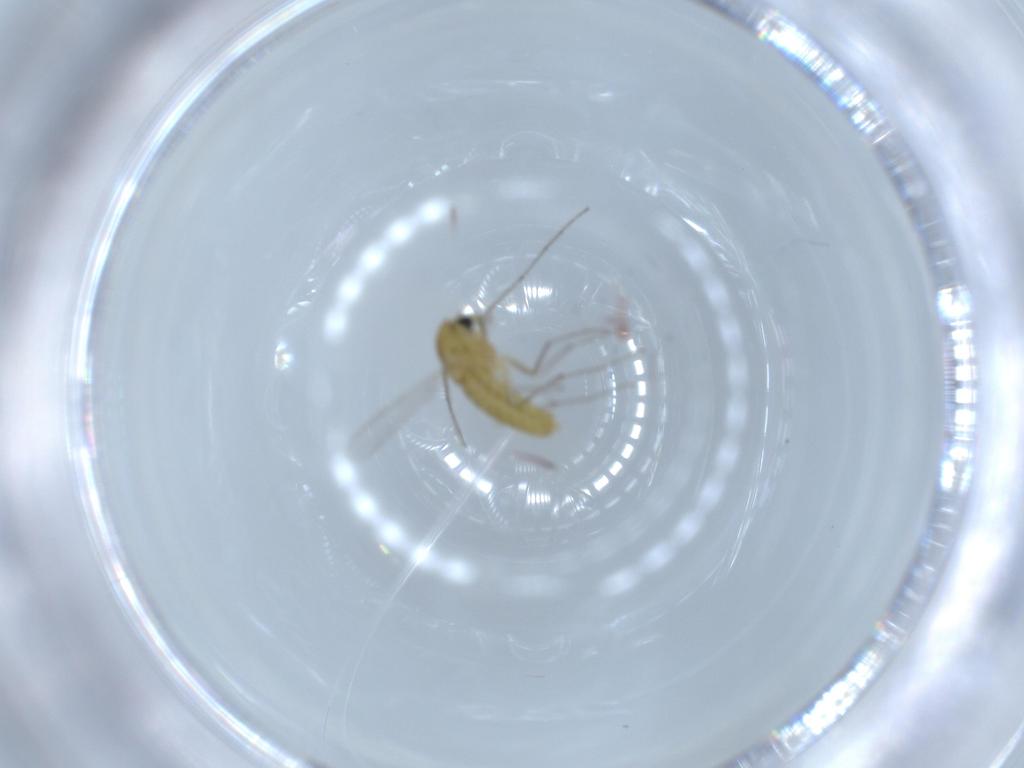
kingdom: Animalia
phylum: Arthropoda
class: Insecta
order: Diptera
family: Chironomidae
